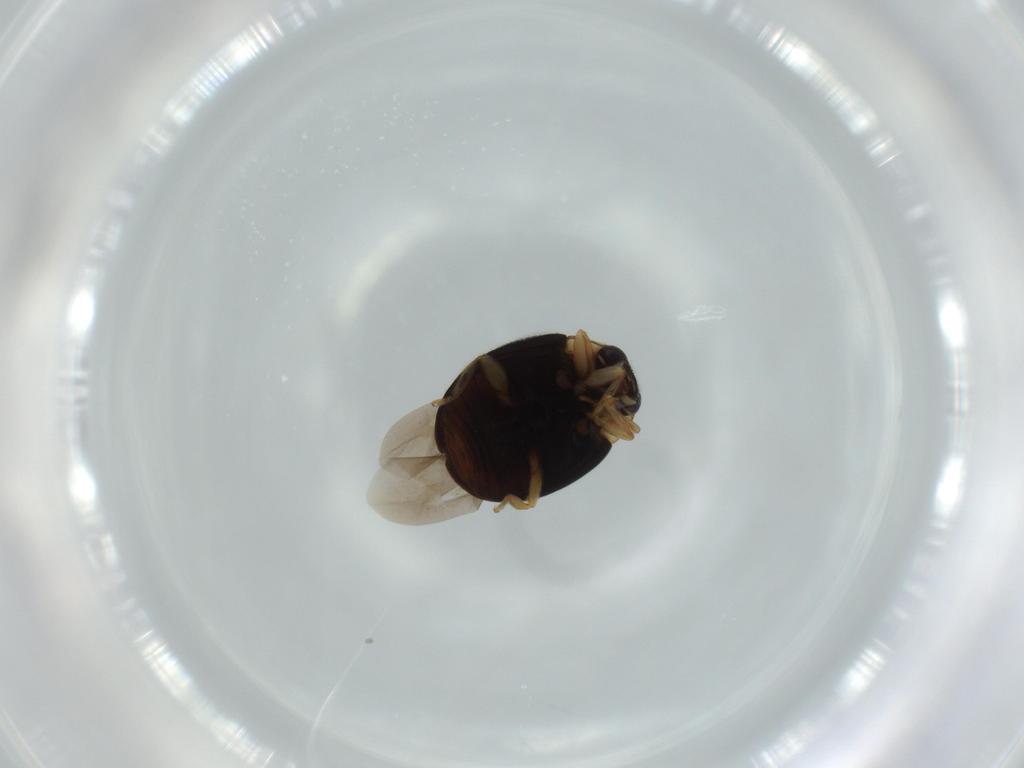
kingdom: Animalia
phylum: Arthropoda
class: Insecta
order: Coleoptera
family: Coccinellidae
